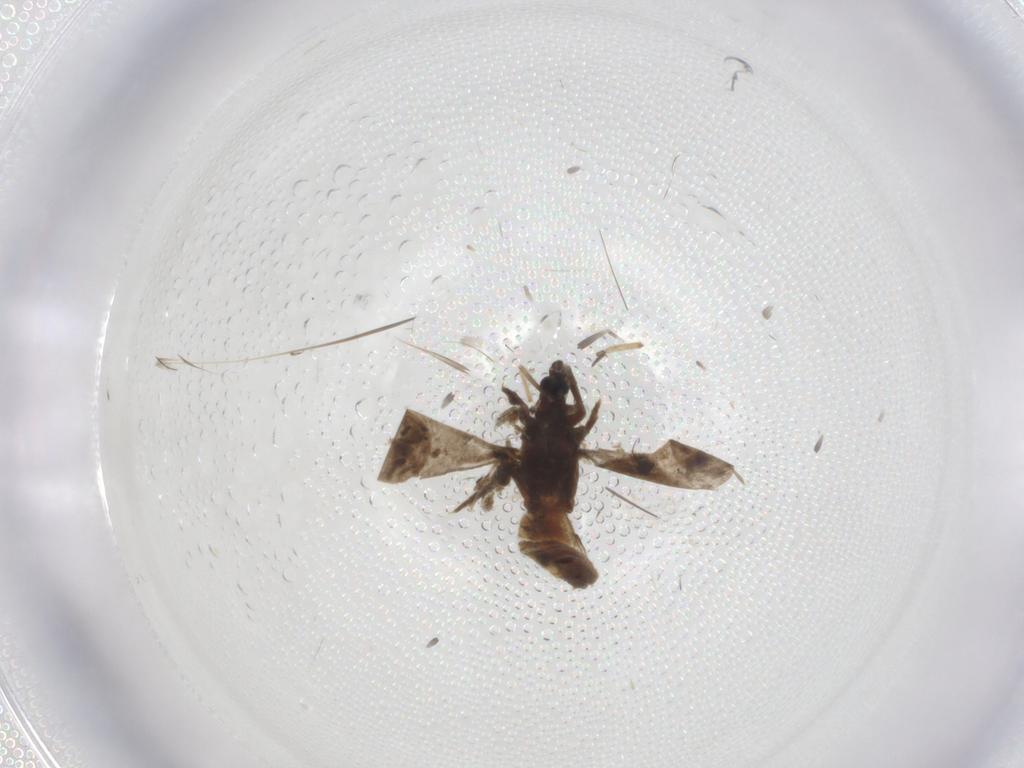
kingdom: Animalia
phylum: Arthropoda
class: Insecta
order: Diptera
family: Limoniidae
